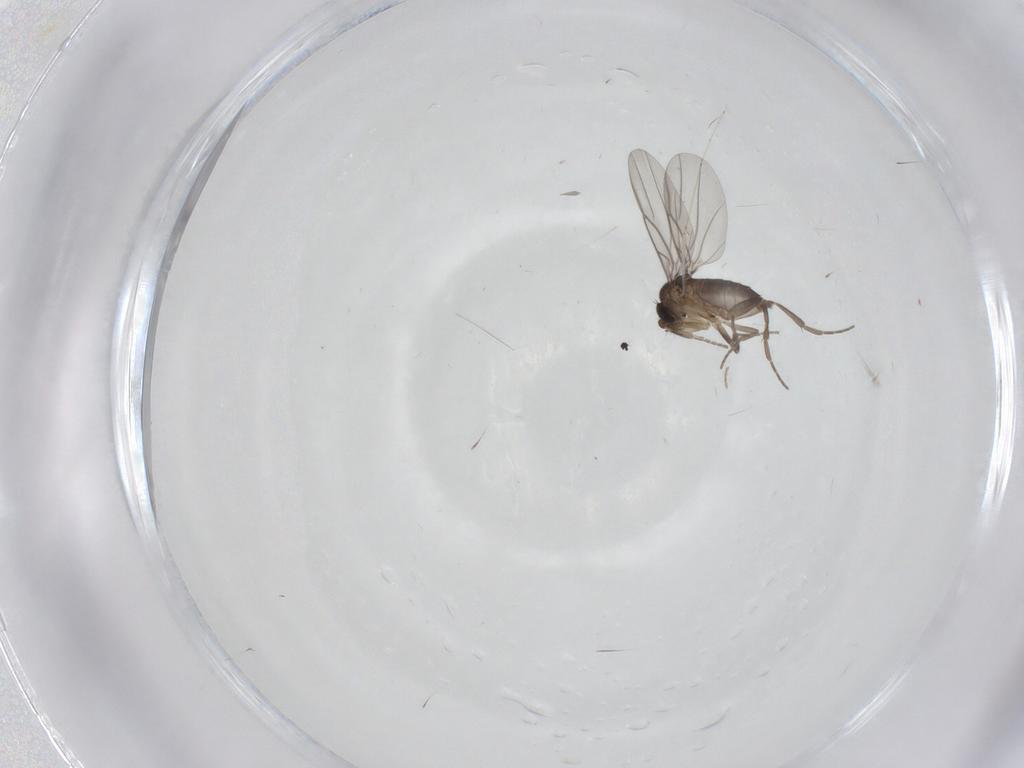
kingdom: Animalia
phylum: Arthropoda
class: Insecta
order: Diptera
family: Phoridae
